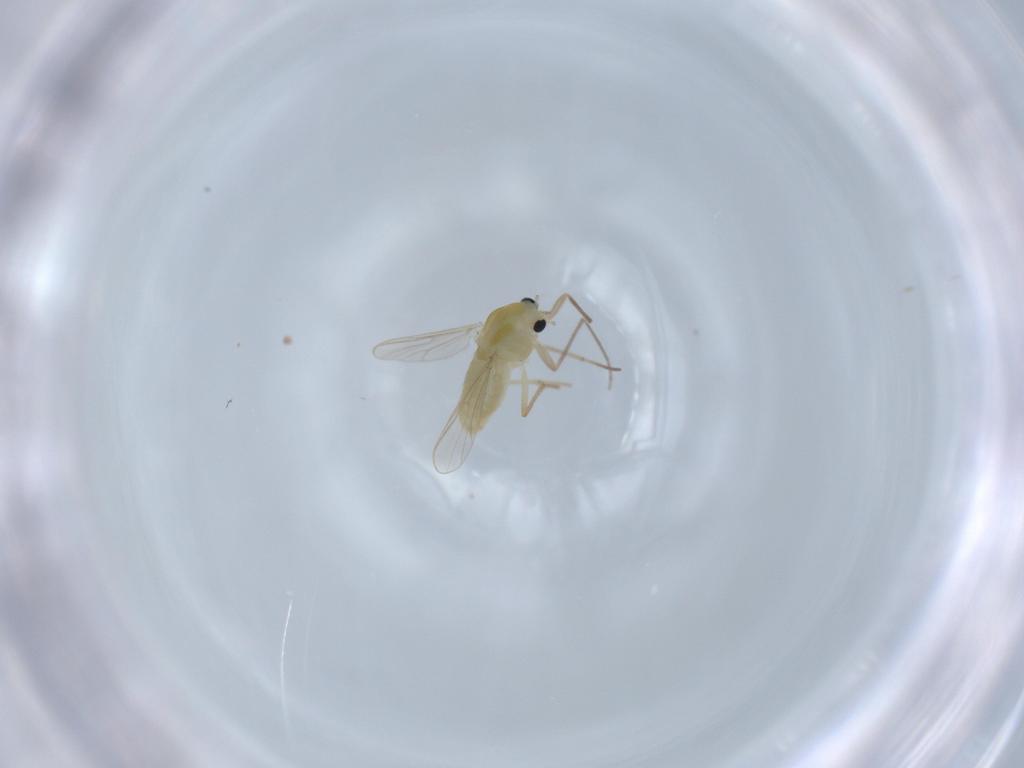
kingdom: Animalia
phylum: Arthropoda
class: Insecta
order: Diptera
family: Chironomidae
